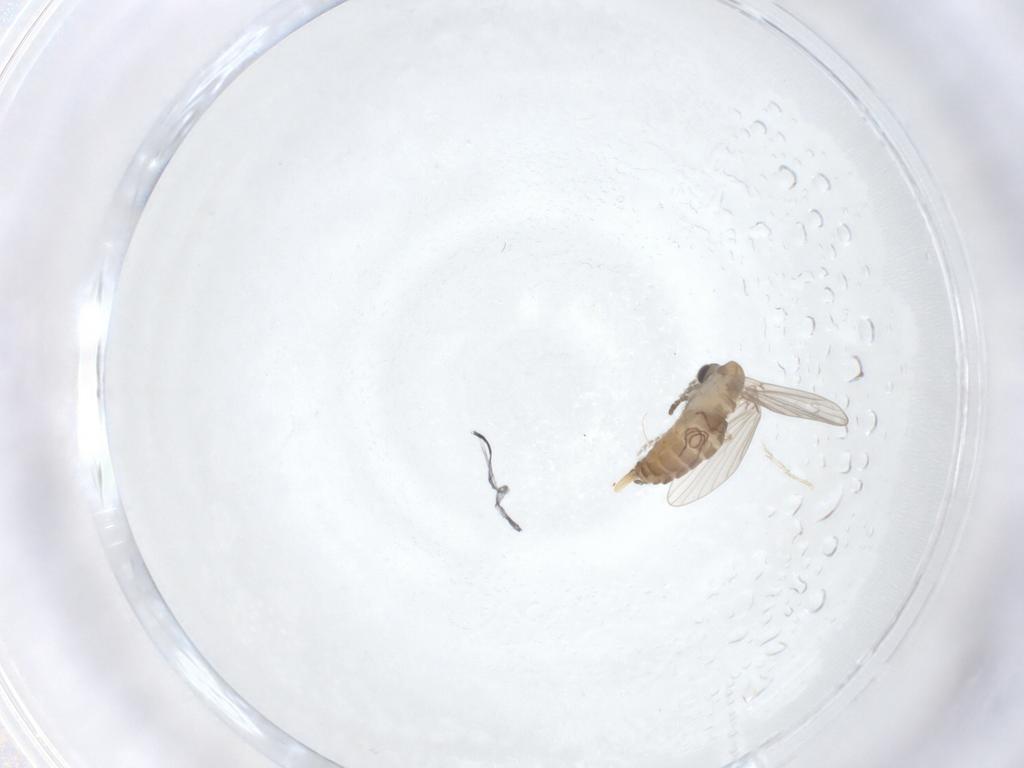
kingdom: Animalia
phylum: Arthropoda
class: Insecta
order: Diptera
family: Psychodidae
